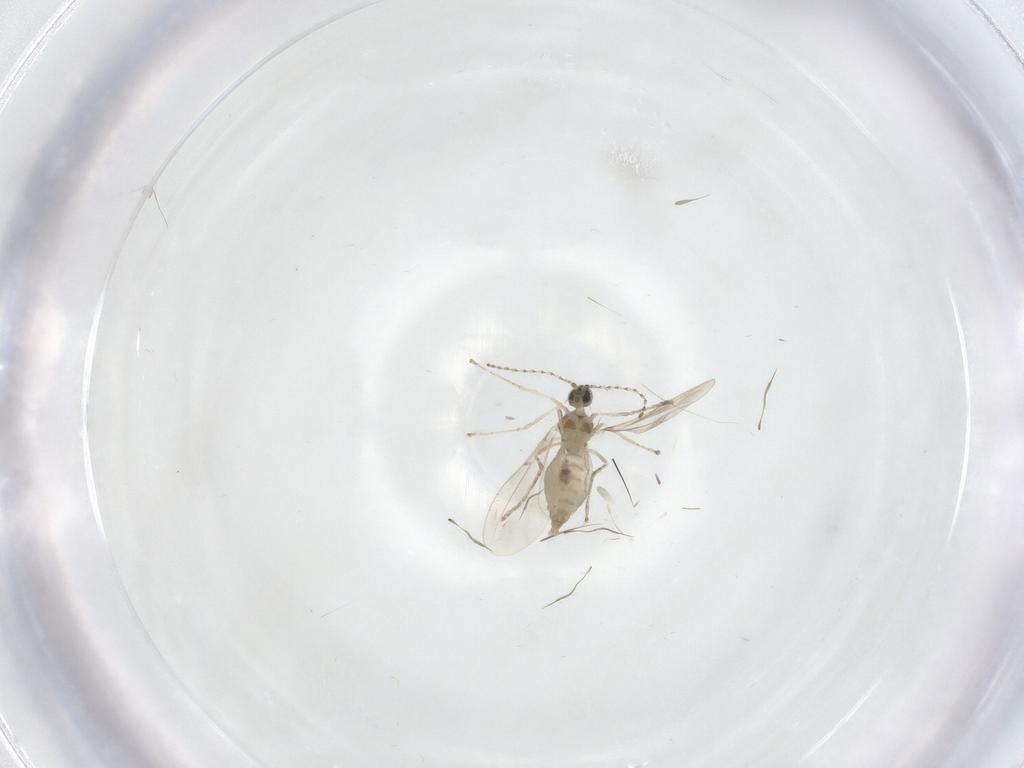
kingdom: Animalia
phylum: Arthropoda
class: Insecta
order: Diptera
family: Cecidomyiidae
